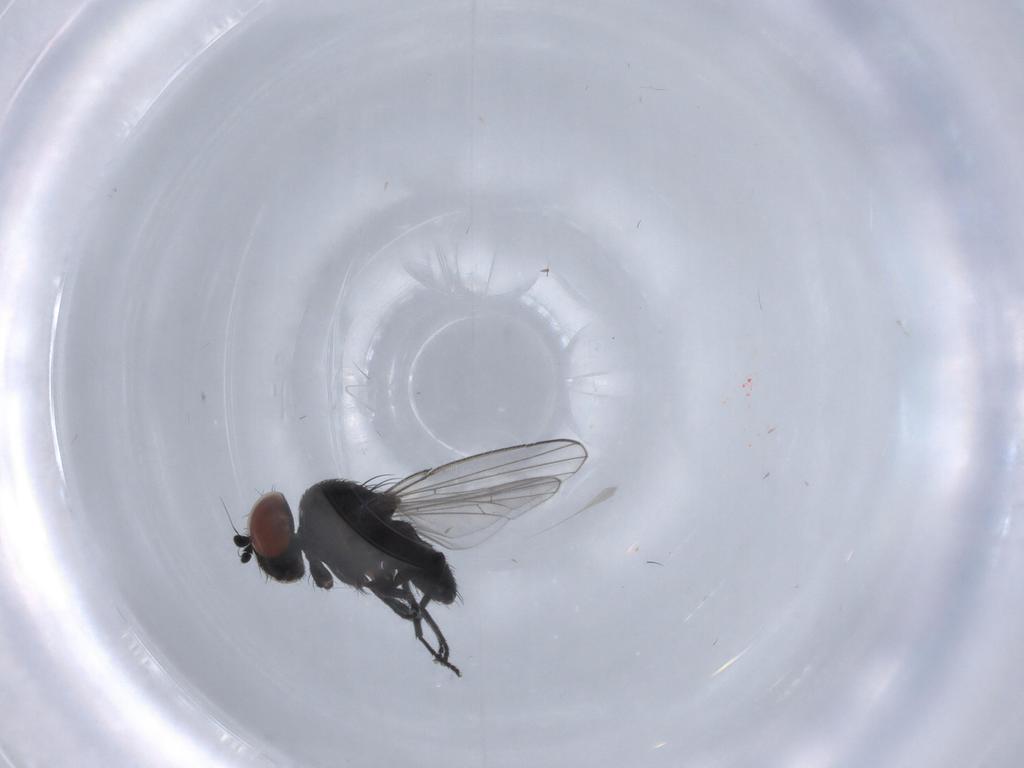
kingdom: Animalia
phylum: Arthropoda
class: Insecta
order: Diptera
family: Milichiidae
